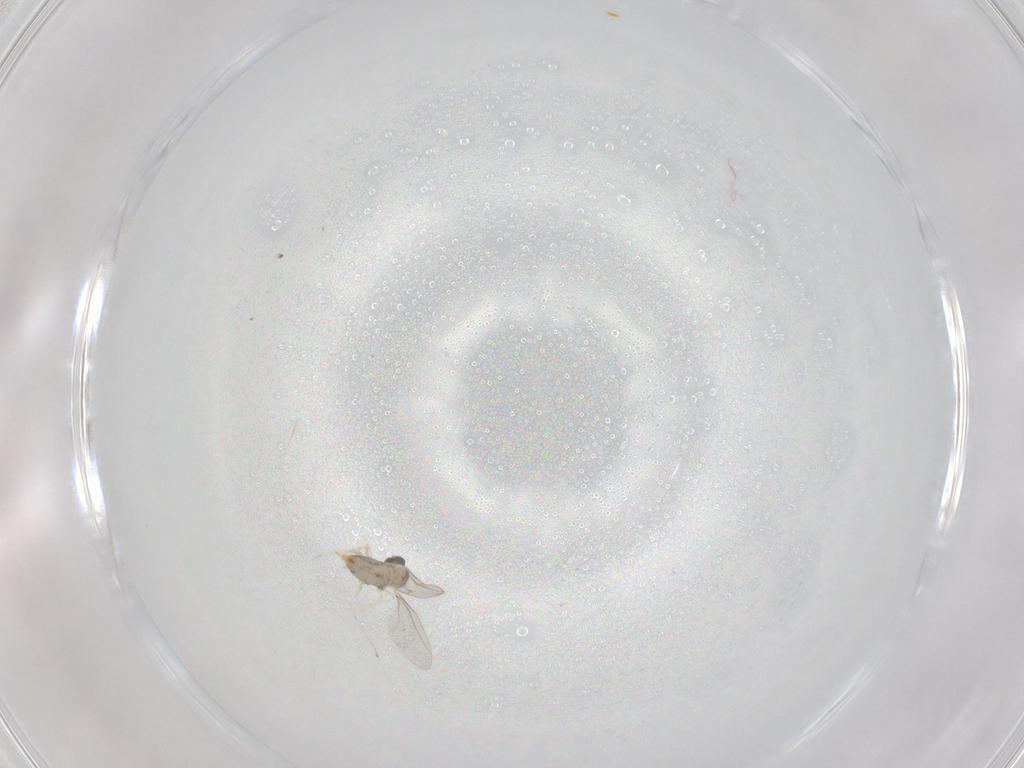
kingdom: Animalia
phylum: Arthropoda
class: Insecta
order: Diptera
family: Cecidomyiidae
